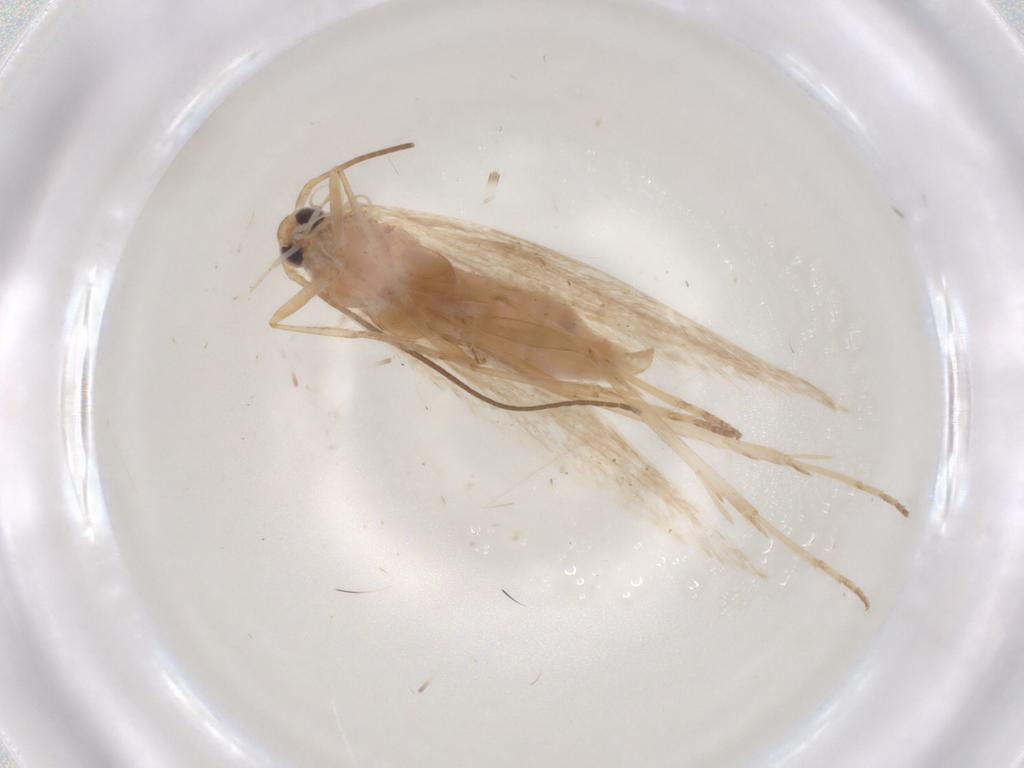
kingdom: Animalia
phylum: Arthropoda
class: Insecta
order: Lepidoptera
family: Coleophoridae
